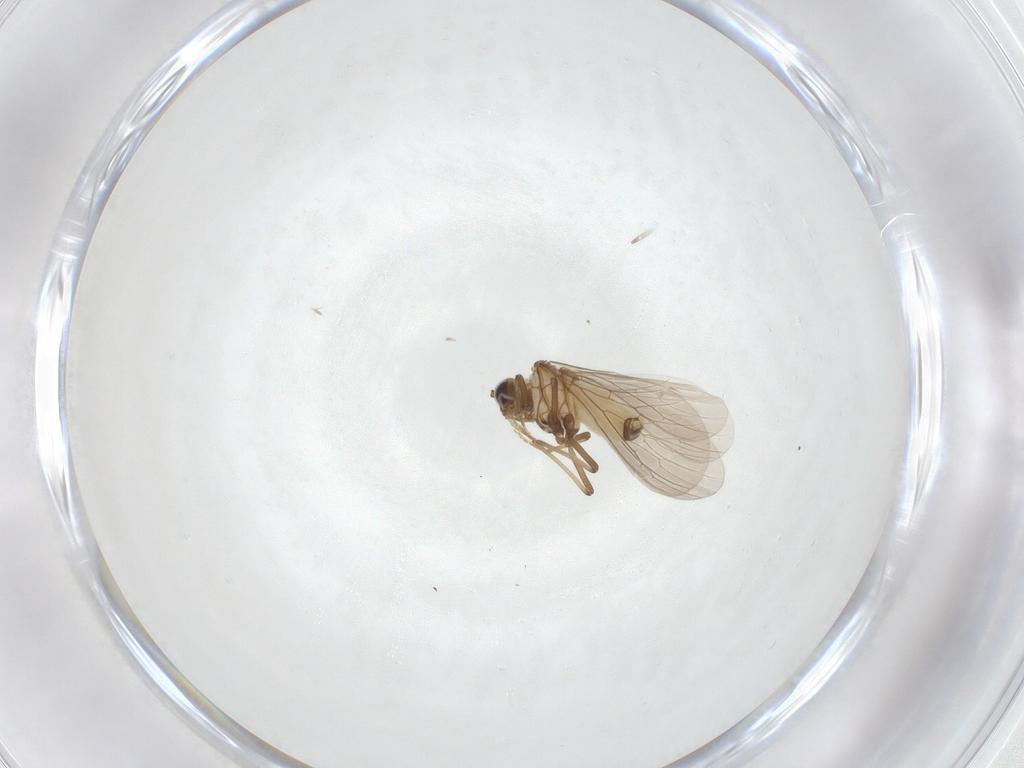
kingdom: Animalia
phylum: Arthropoda
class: Insecta
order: Neuroptera
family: Coniopterygidae
